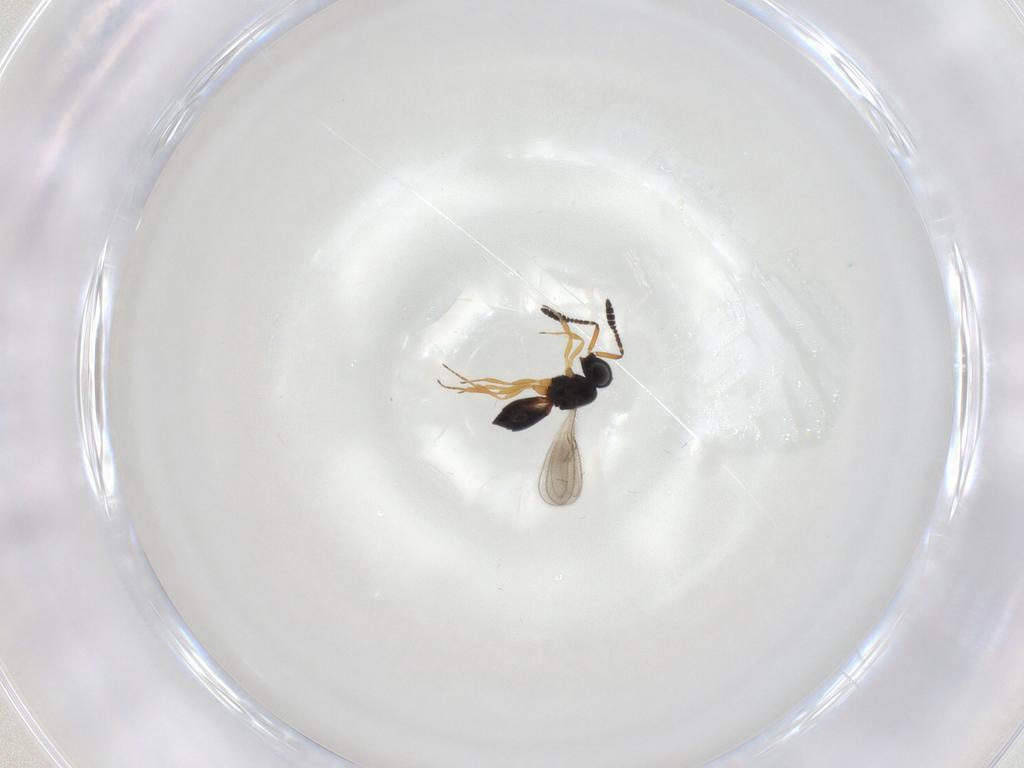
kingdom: Animalia
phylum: Arthropoda
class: Insecta
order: Hymenoptera
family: Scelionidae
